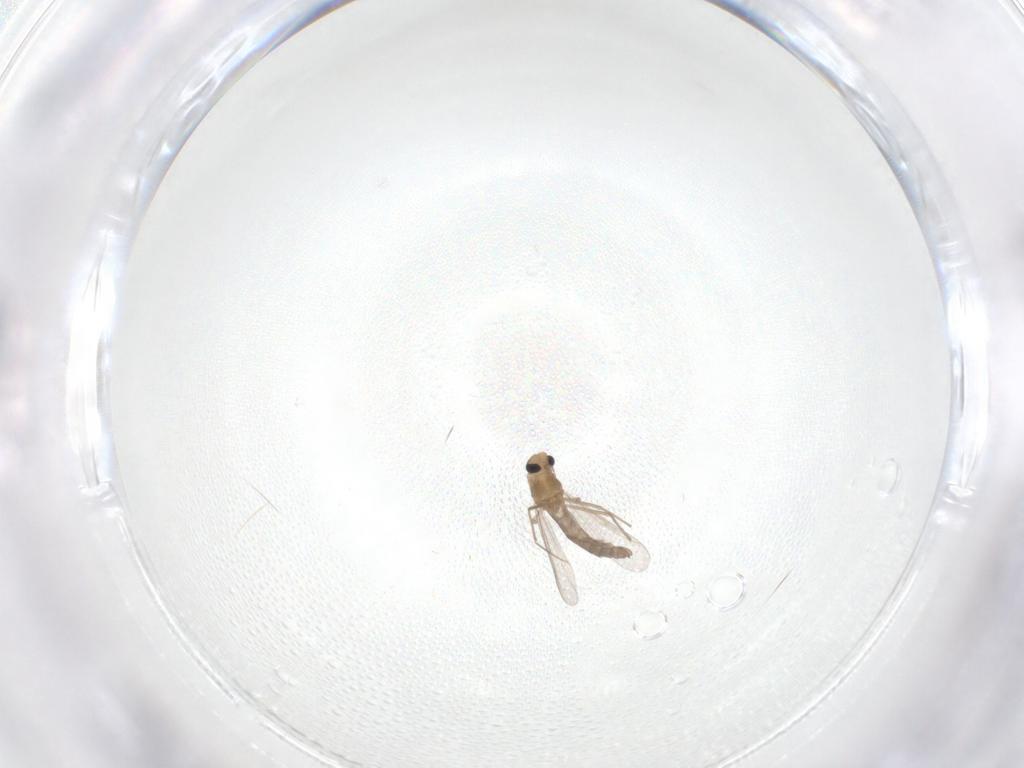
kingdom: Animalia
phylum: Arthropoda
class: Insecta
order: Diptera
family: Cecidomyiidae
